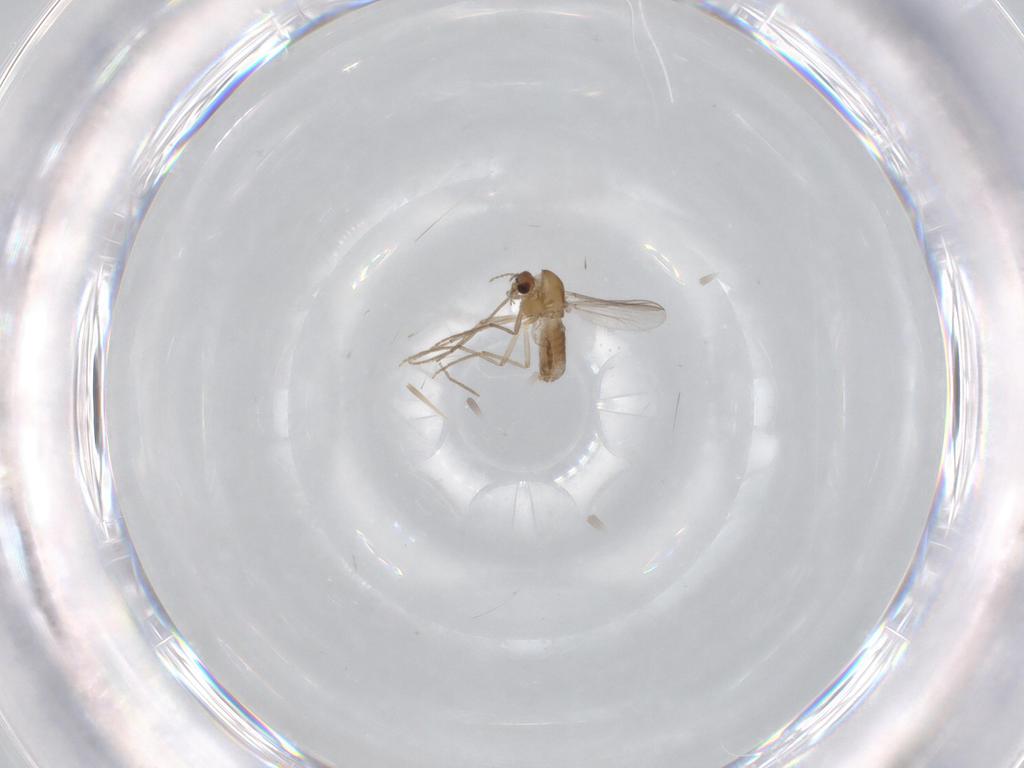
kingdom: Animalia
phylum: Arthropoda
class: Insecta
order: Diptera
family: Chironomidae
